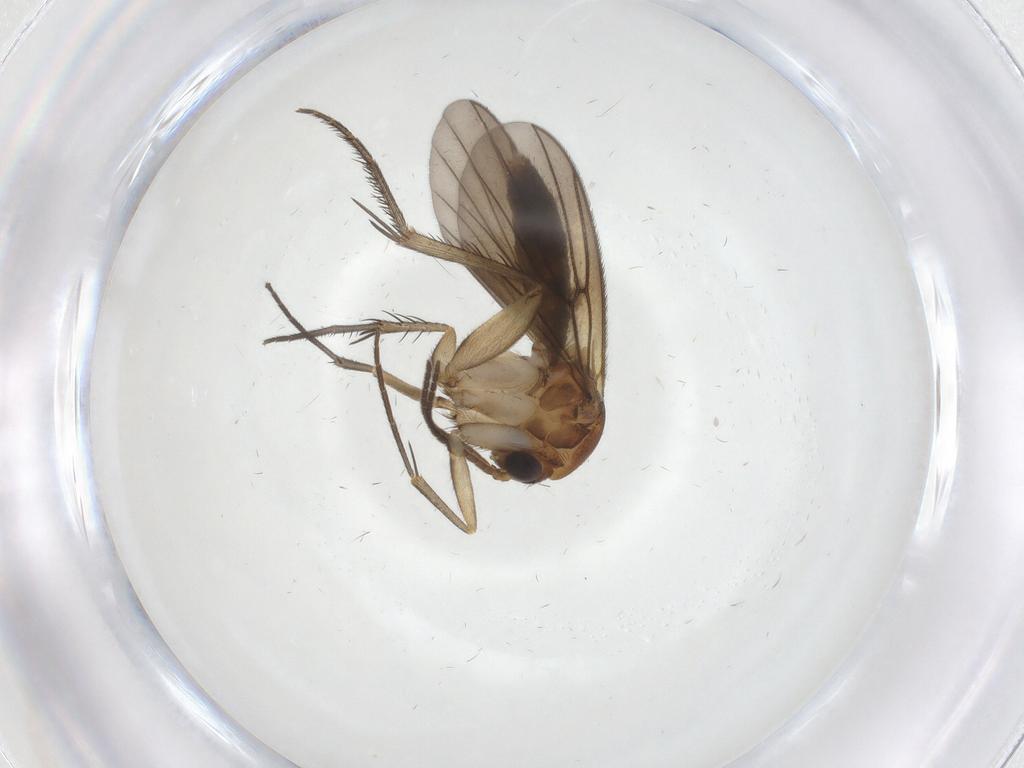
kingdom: Animalia
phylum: Arthropoda
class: Insecta
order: Diptera
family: Mycetophilidae
